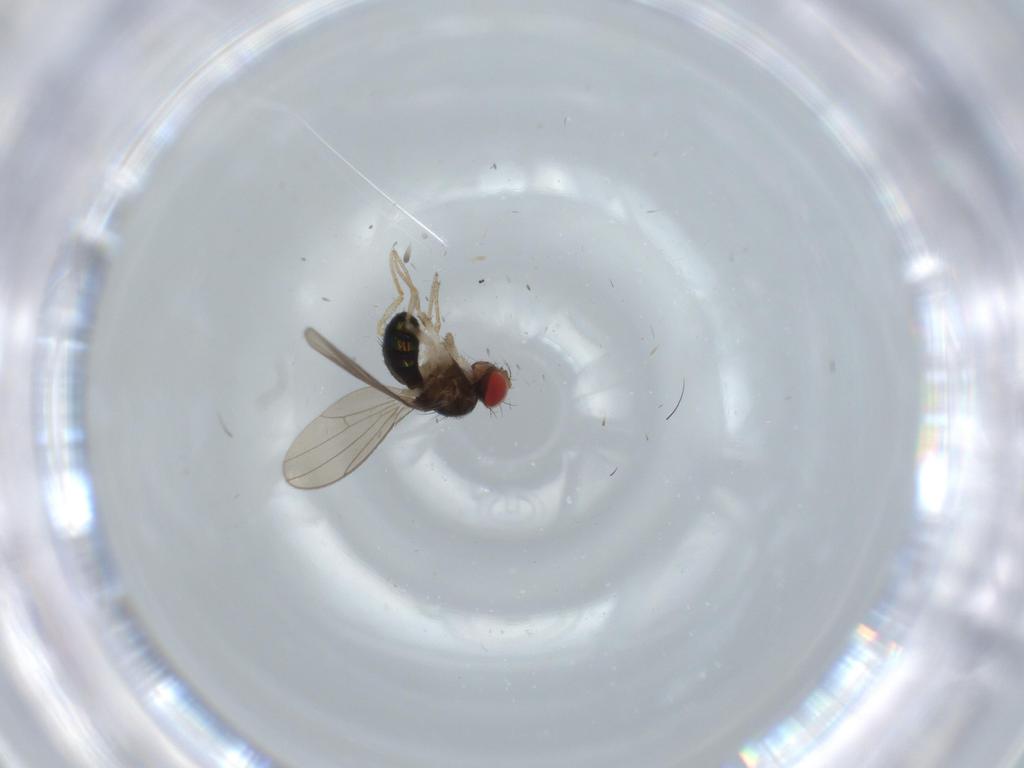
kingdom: Animalia
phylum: Arthropoda
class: Insecta
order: Diptera
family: Drosophilidae
